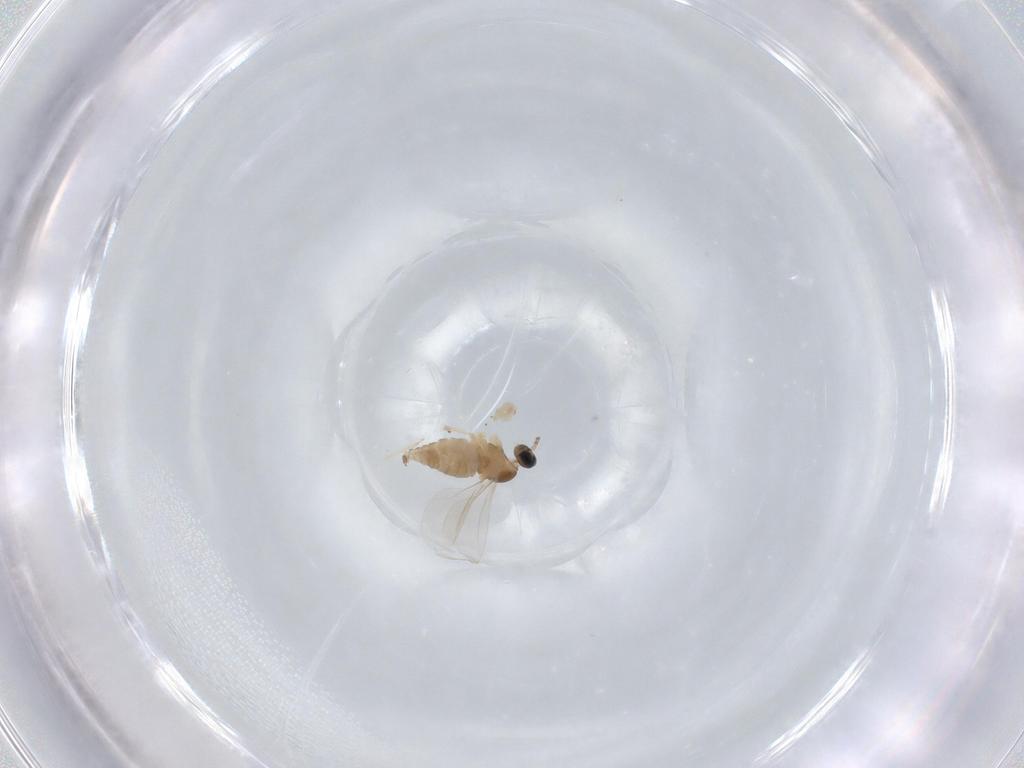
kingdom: Animalia
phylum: Arthropoda
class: Insecta
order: Diptera
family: Cecidomyiidae
